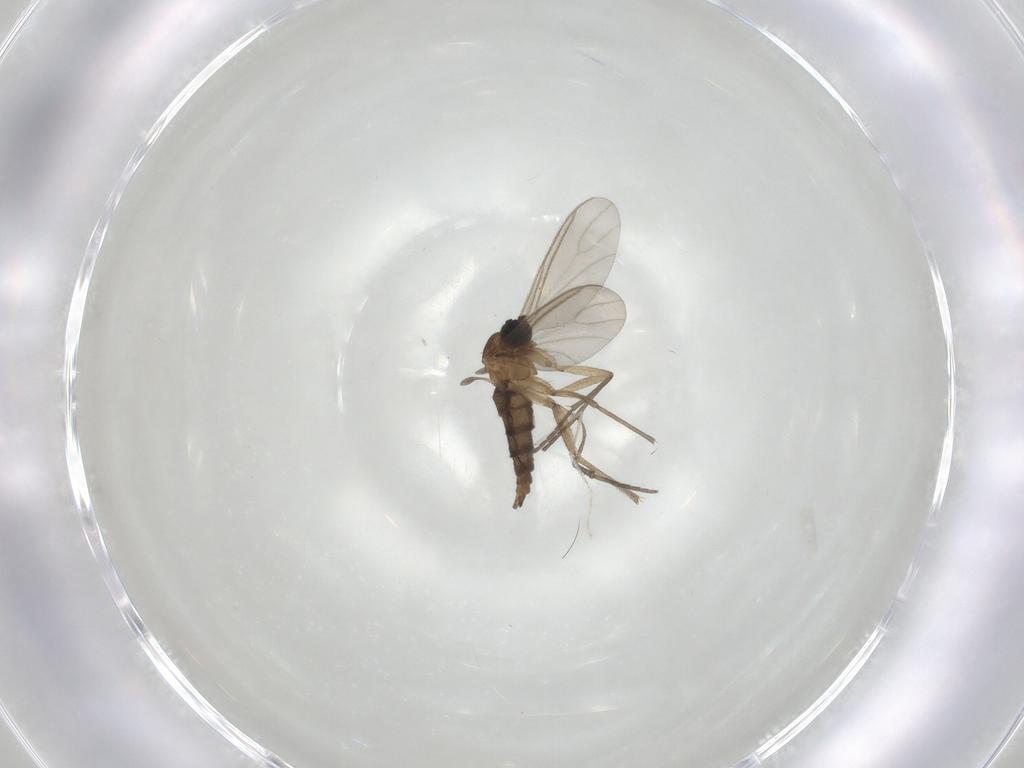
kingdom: Animalia
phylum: Arthropoda
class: Insecta
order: Diptera
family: Sciaridae
